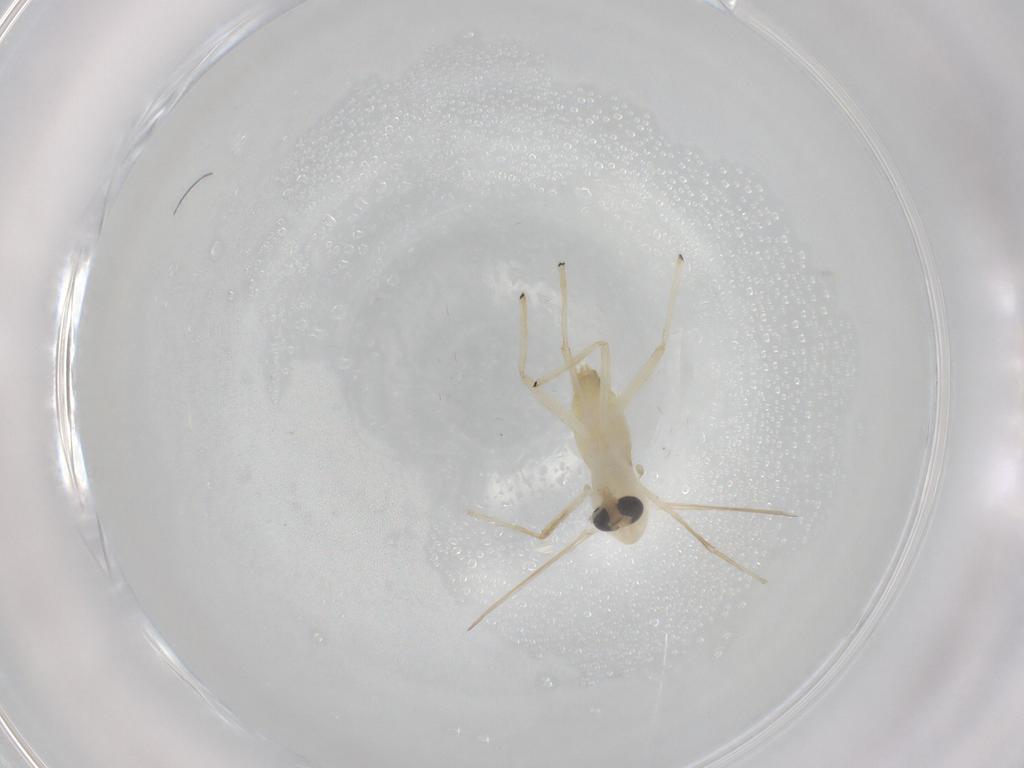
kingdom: Animalia
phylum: Arthropoda
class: Insecta
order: Diptera
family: Chironomidae
